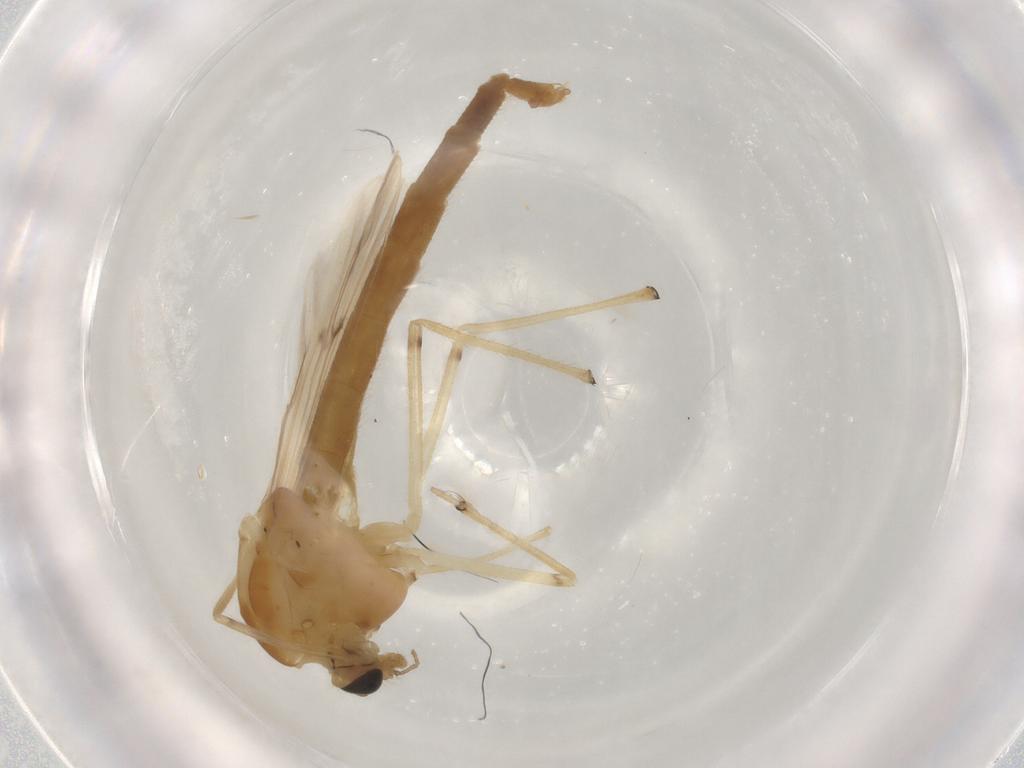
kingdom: Animalia
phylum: Arthropoda
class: Insecta
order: Diptera
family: Chironomidae
